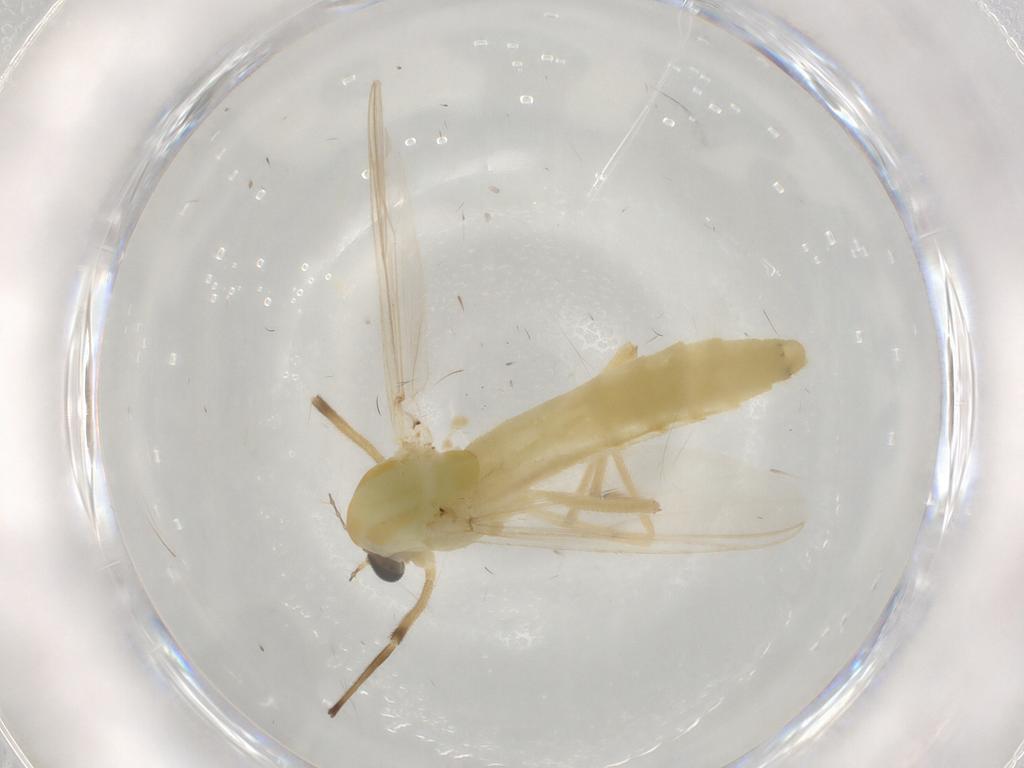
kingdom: Animalia
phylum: Arthropoda
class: Insecta
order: Diptera
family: Chironomidae
